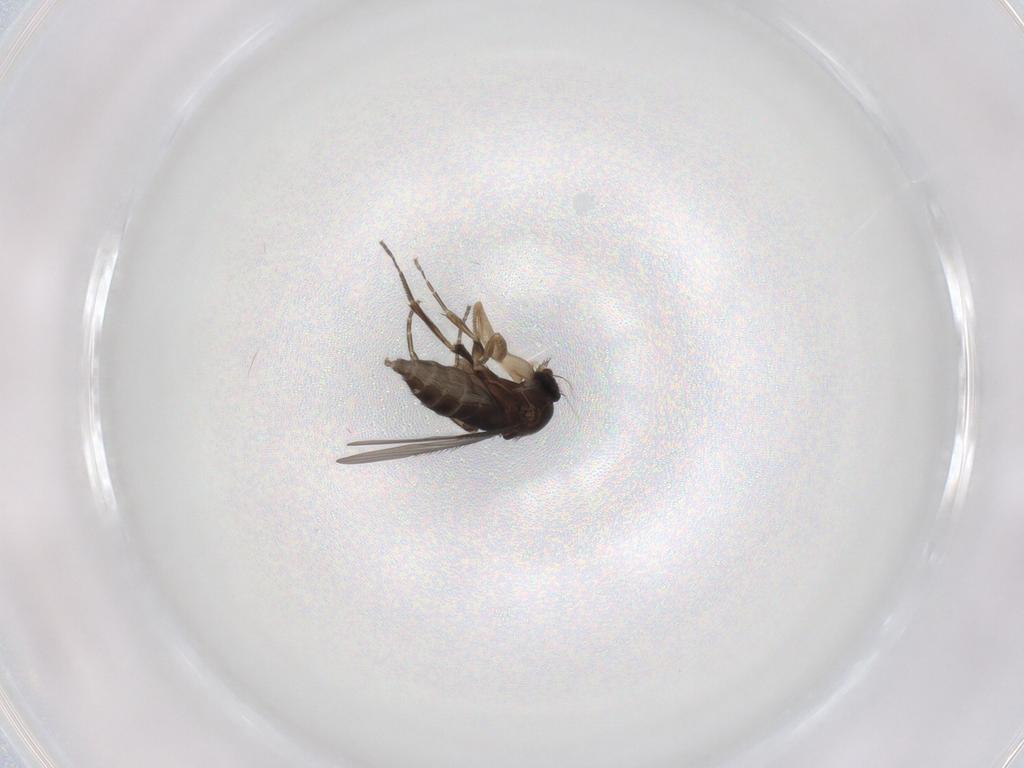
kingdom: Animalia
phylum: Arthropoda
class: Insecta
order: Diptera
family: Phoridae
